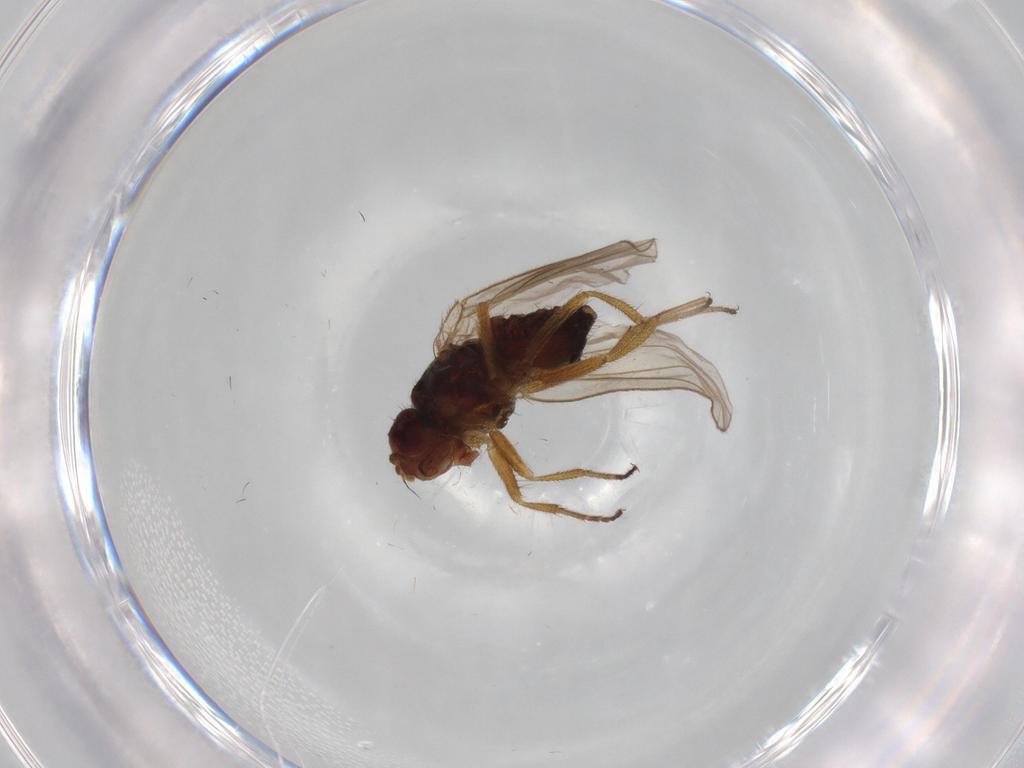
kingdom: Animalia
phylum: Arthropoda
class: Insecta
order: Diptera
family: Drosophilidae
